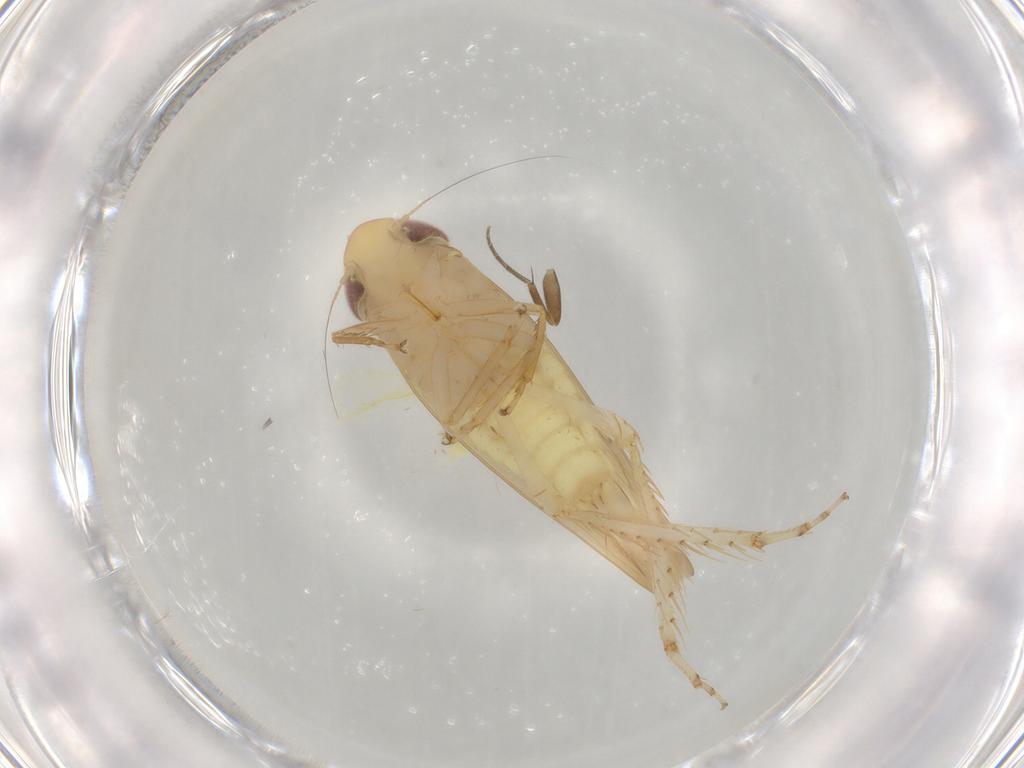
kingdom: Animalia
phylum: Arthropoda
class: Insecta
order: Hemiptera
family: Cicadellidae
